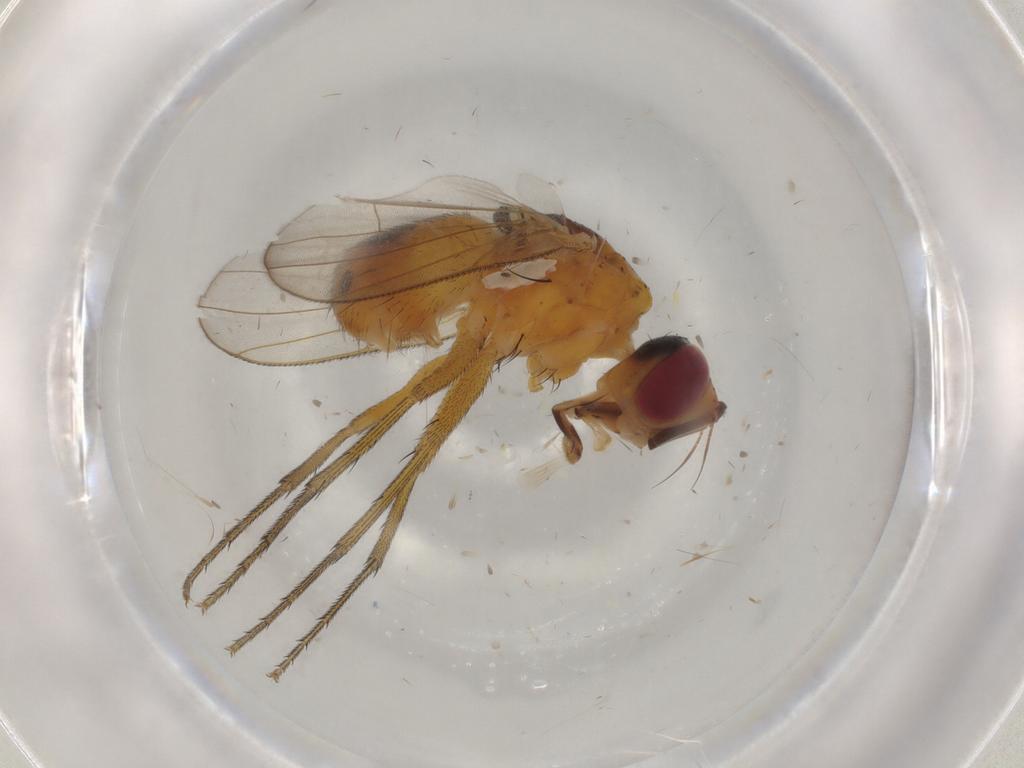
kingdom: Animalia
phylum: Arthropoda
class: Insecta
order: Diptera
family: Muscidae
